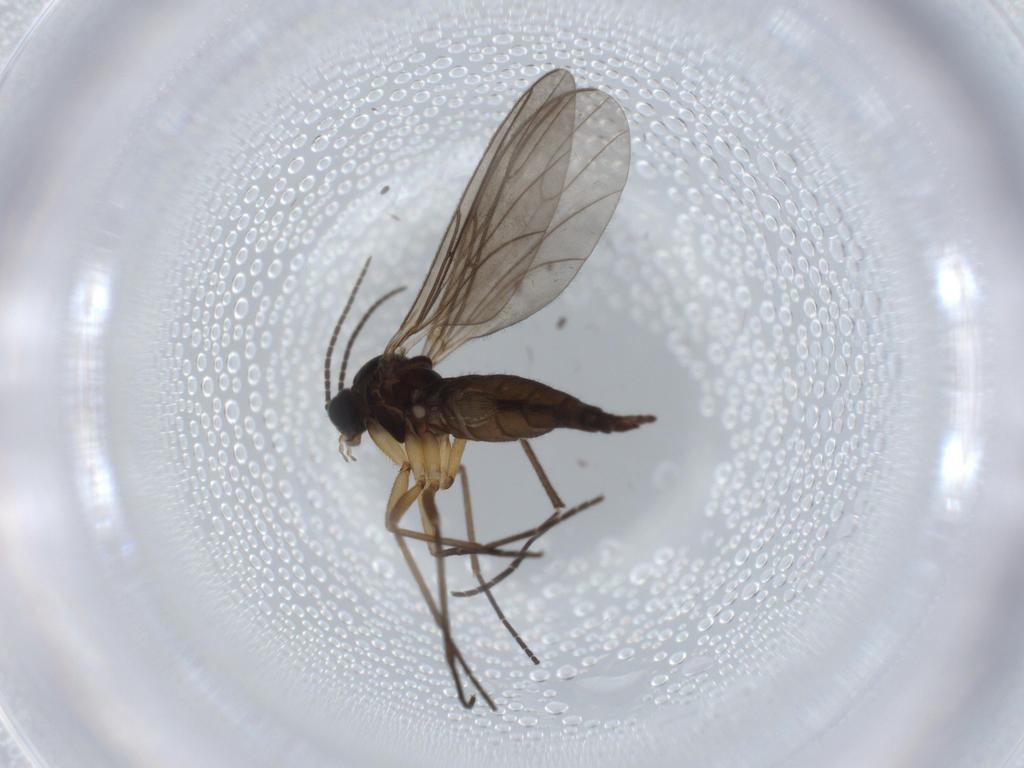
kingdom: Animalia
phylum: Arthropoda
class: Insecta
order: Diptera
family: Sciaridae
